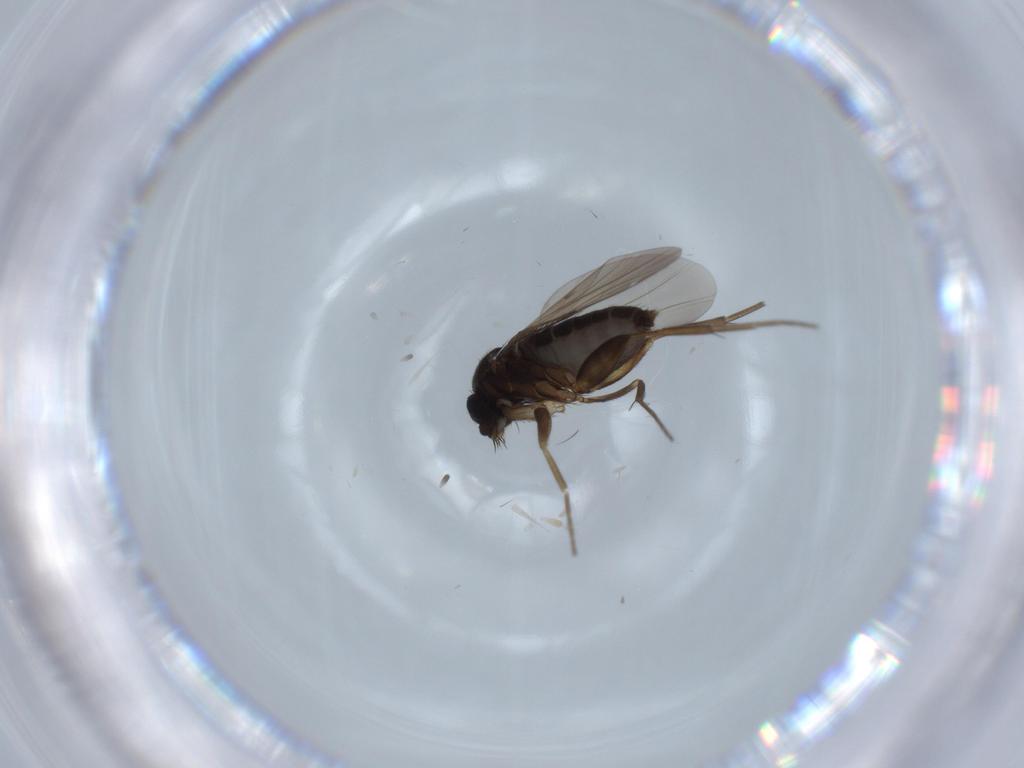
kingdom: Animalia
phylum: Arthropoda
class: Insecta
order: Diptera
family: Phoridae
